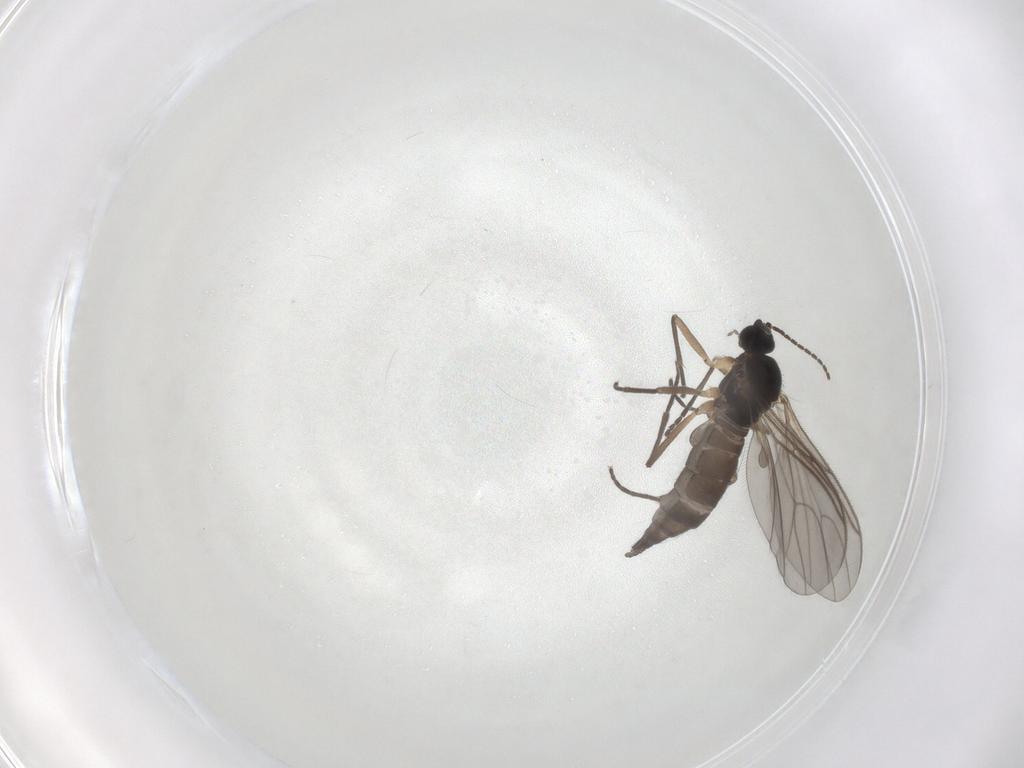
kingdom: Animalia
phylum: Arthropoda
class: Insecta
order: Diptera
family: Sciaridae
